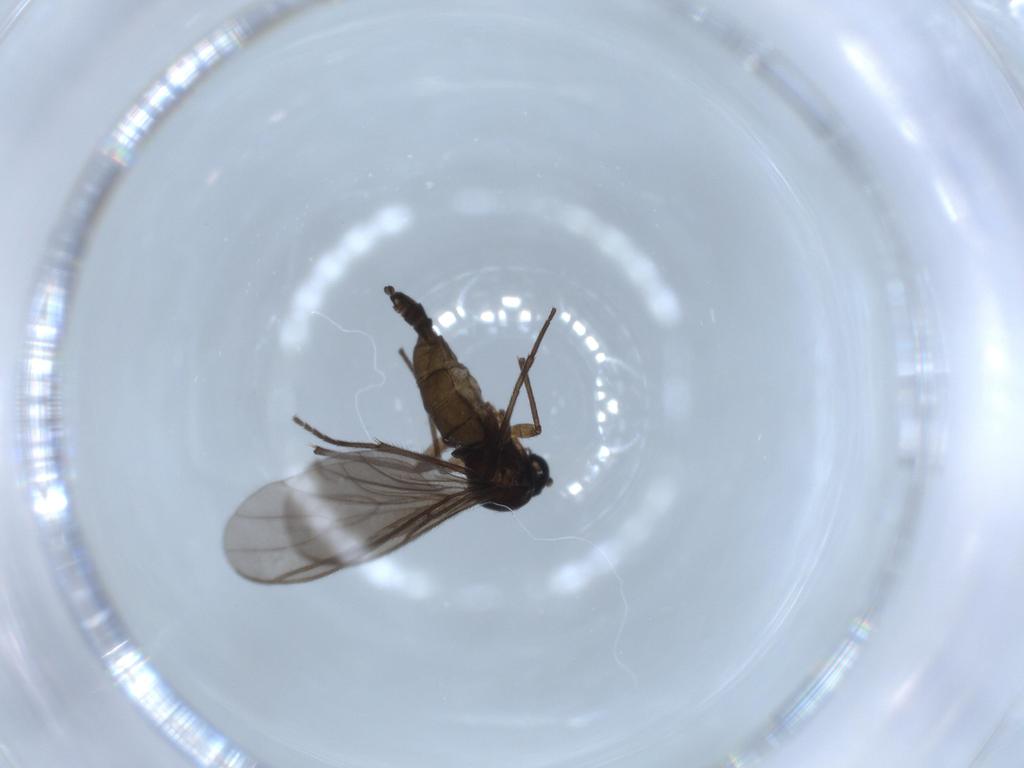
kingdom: Animalia
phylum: Arthropoda
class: Insecta
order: Diptera
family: Sciaridae
